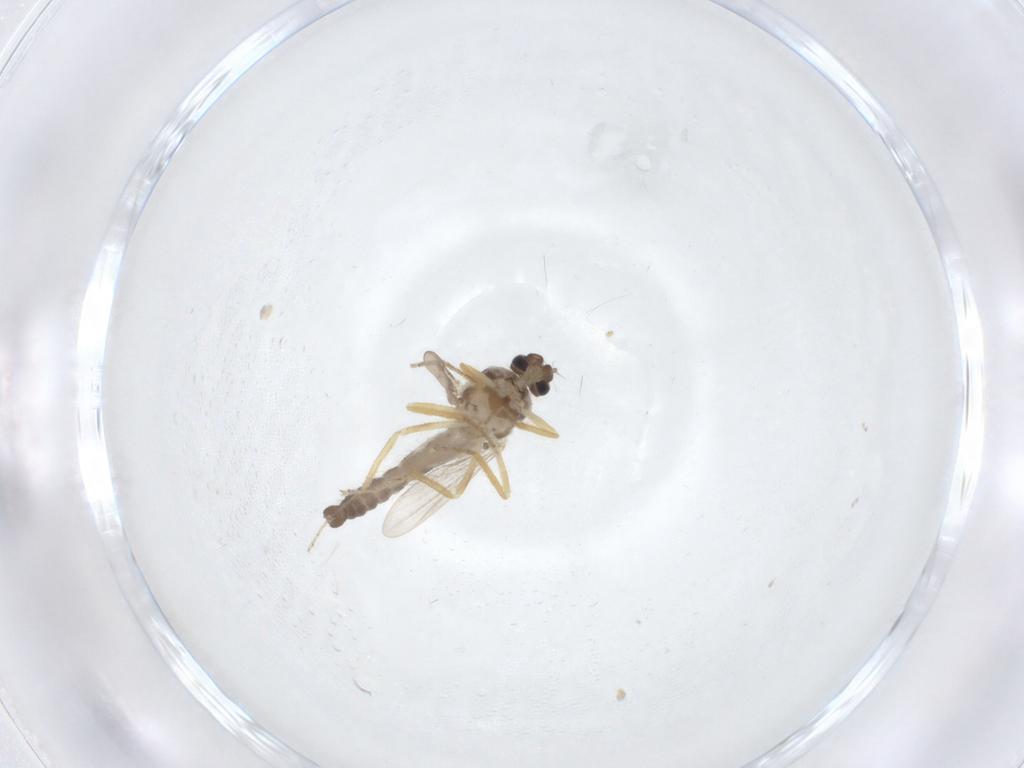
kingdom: Animalia
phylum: Arthropoda
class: Insecta
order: Diptera
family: Ceratopogonidae
